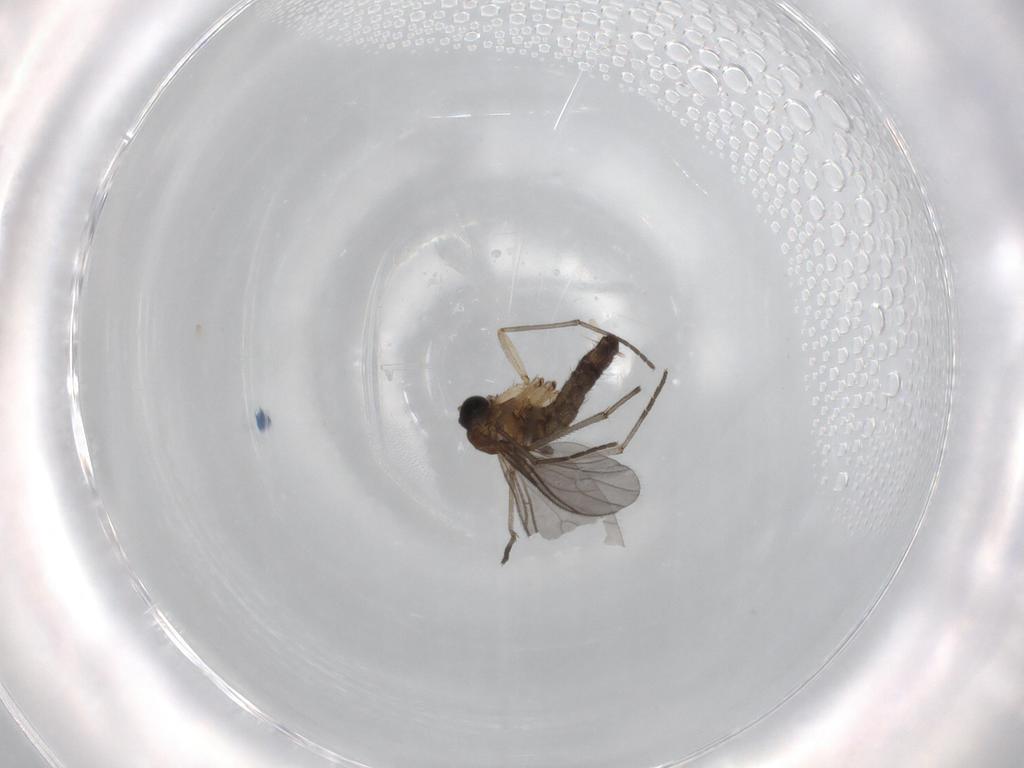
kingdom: Animalia
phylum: Arthropoda
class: Insecta
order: Diptera
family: Sciaridae
